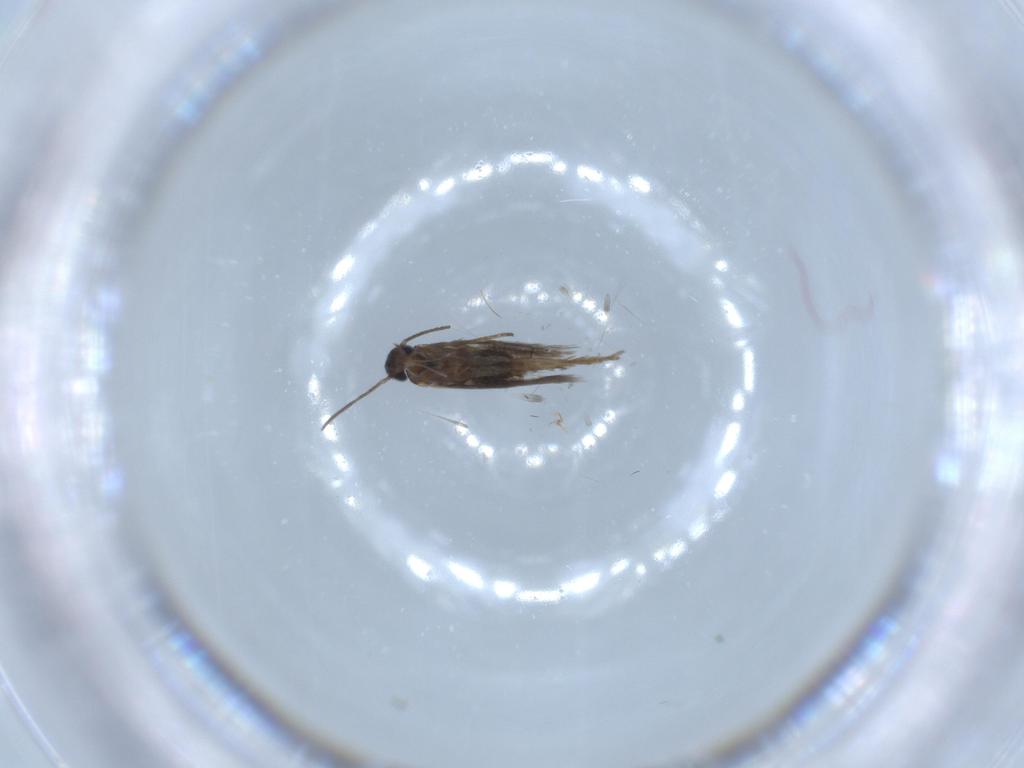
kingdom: Animalia
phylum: Arthropoda
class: Insecta
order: Lepidoptera
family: Heliozelidae
